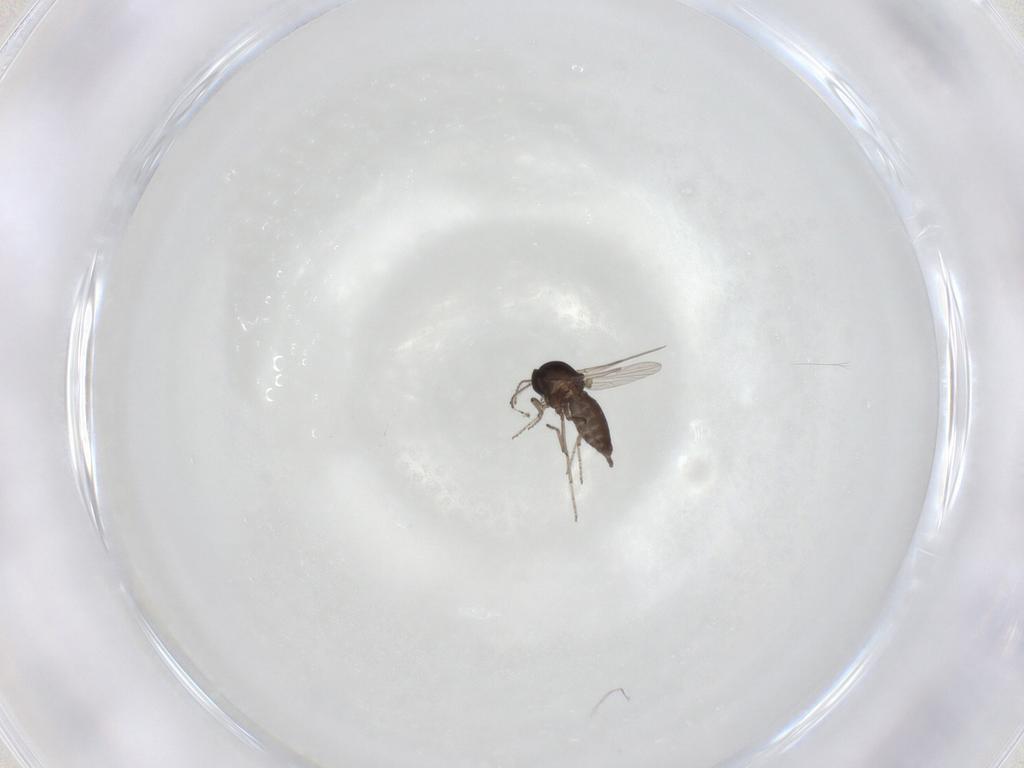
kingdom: Animalia
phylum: Arthropoda
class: Insecta
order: Diptera
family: Ceratopogonidae
